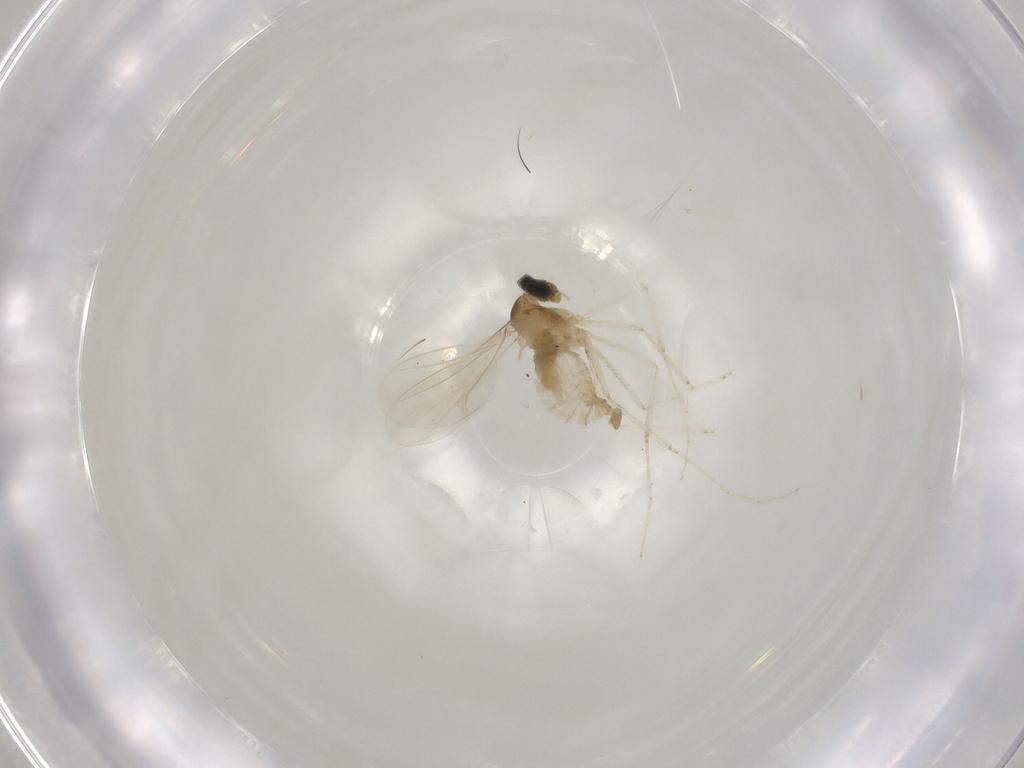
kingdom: Animalia
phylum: Arthropoda
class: Insecta
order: Diptera
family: Cecidomyiidae
